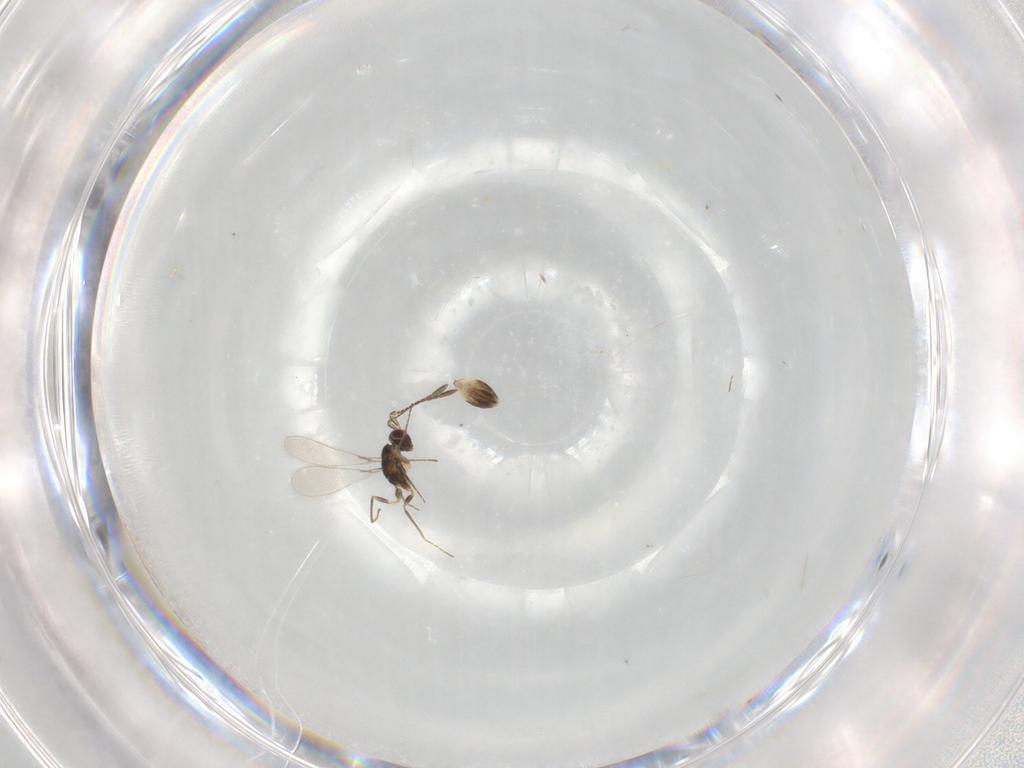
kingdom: Animalia
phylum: Arthropoda
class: Insecta
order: Hymenoptera
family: Mymaridae
